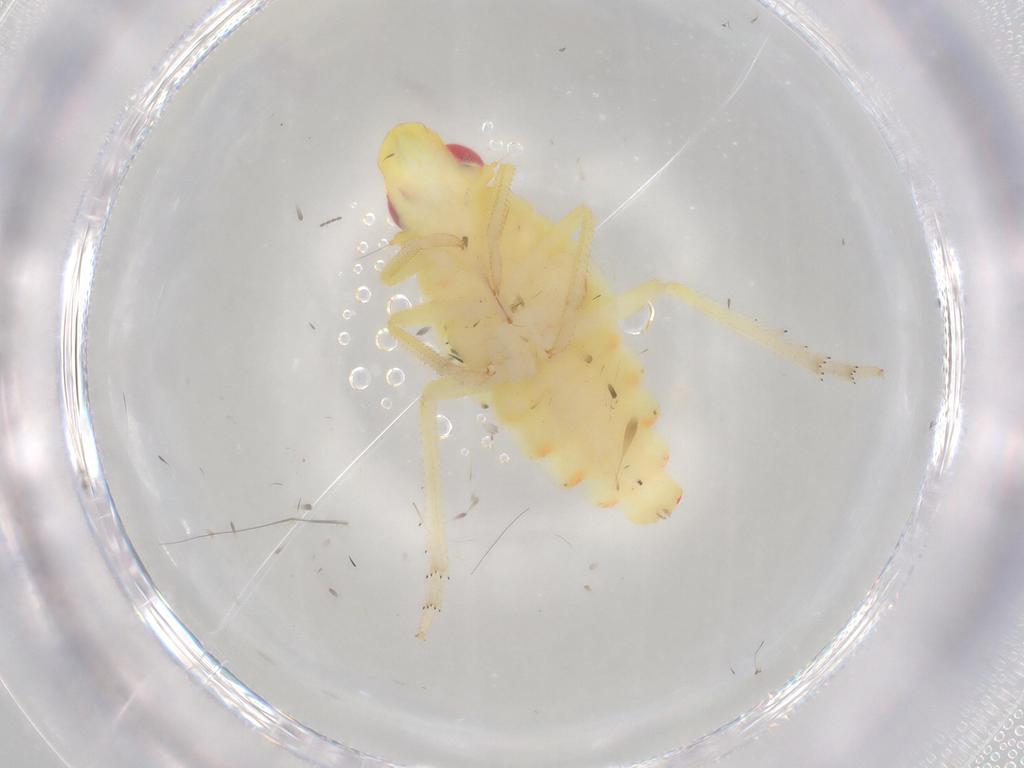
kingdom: Animalia
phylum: Arthropoda
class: Insecta
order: Hemiptera
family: Tropiduchidae
